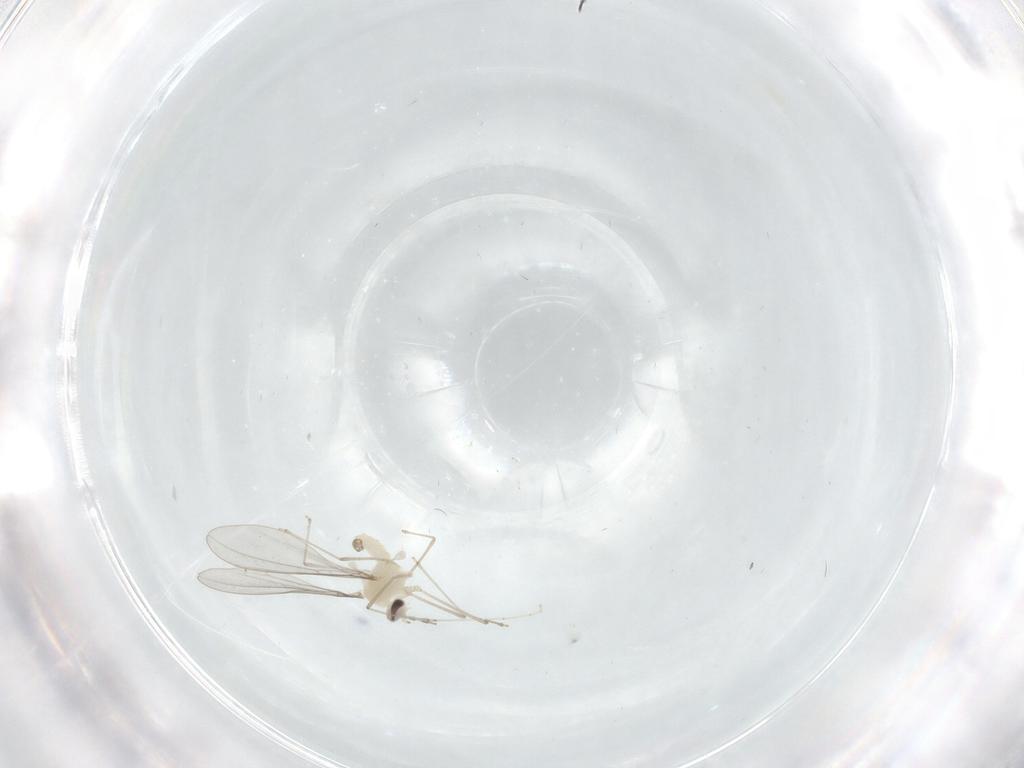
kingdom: Animalia
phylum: Arthropoda
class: Insecta
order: Diptera
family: Cecidomyiidae
